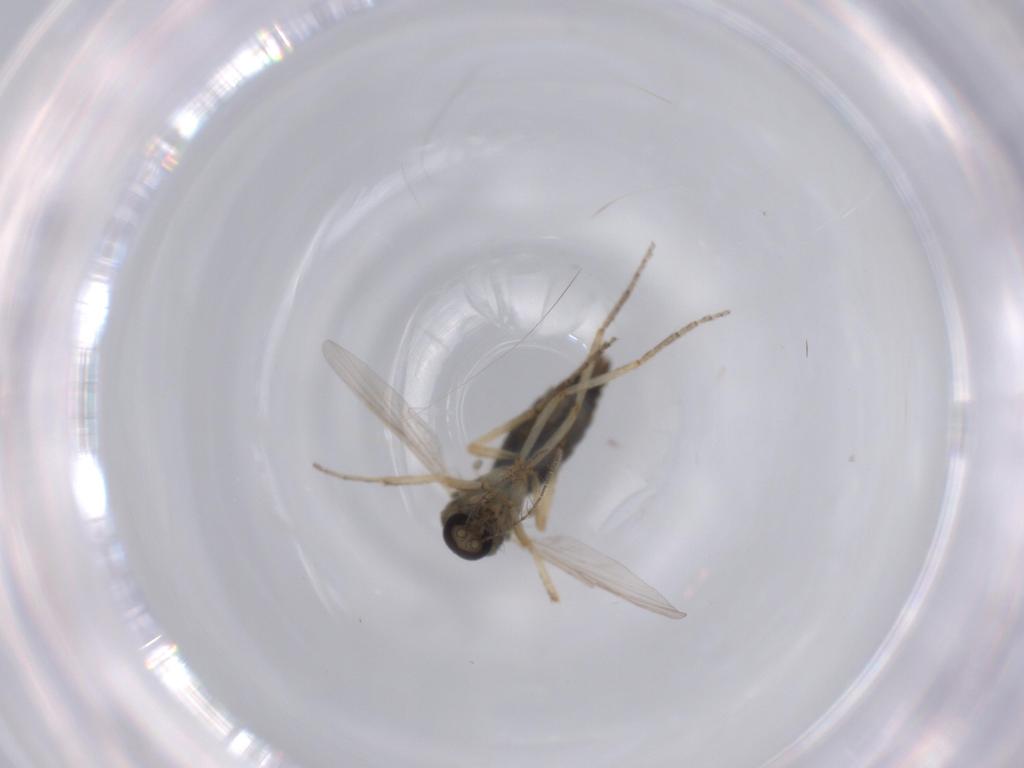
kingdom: Animalia
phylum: Arthropoda
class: Insecta
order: Diptera
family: Ceratopogonidae
